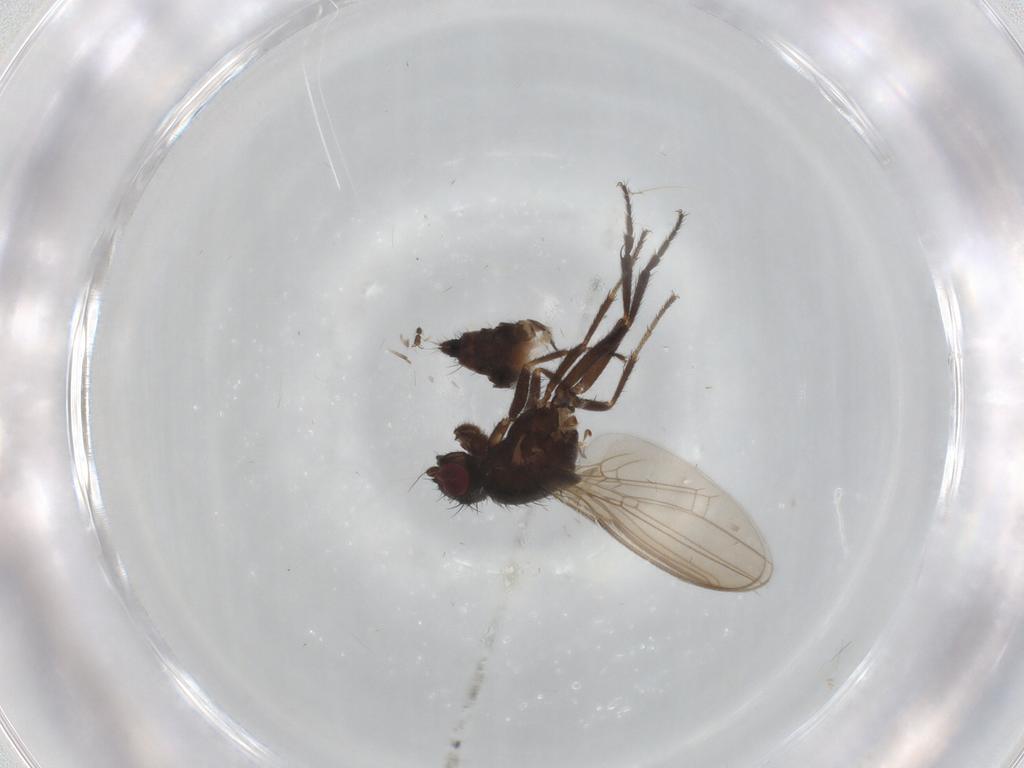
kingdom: Animalia
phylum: Arthropoda
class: Insecta
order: Diptera
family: Sphaeroceridae
